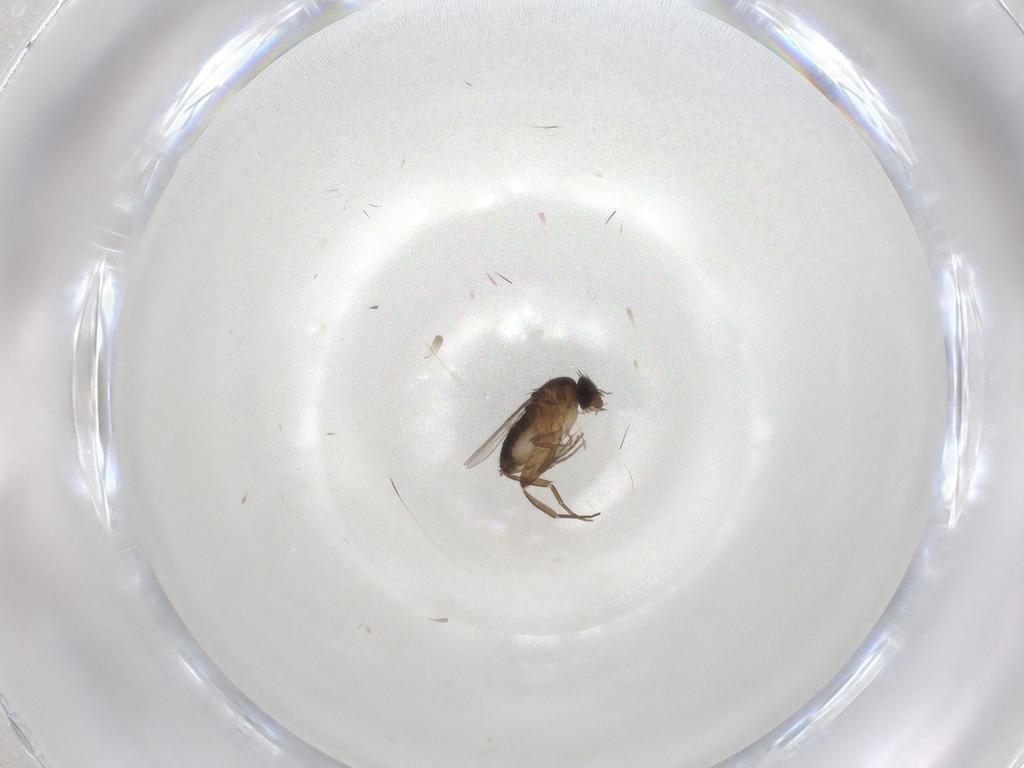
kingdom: Animalia
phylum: Arthropoda
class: Insecta
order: Diptera
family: Phoridae
